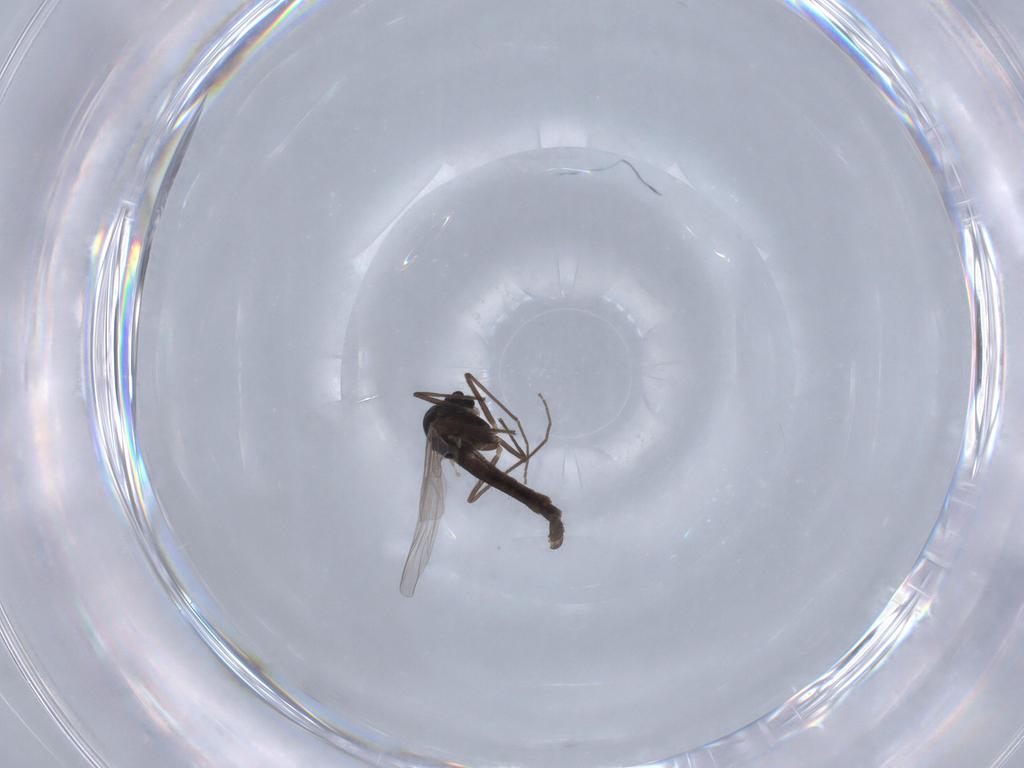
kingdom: Animalia
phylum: Arthropoda
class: Insecta
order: Diptera
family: Chironomidae
